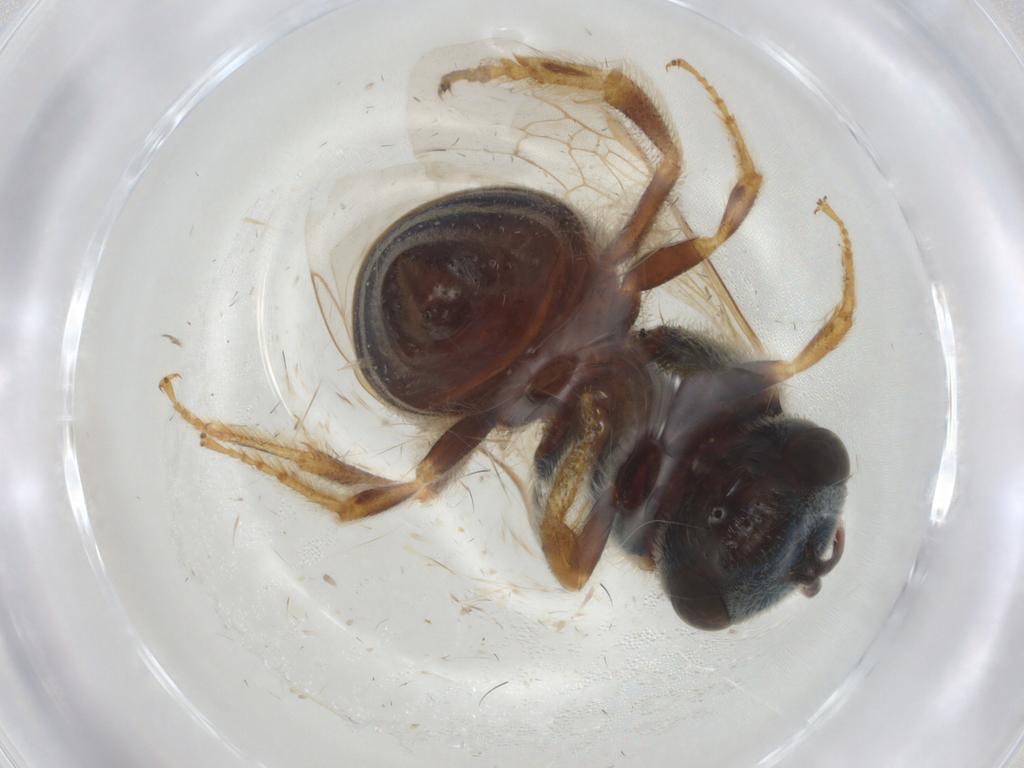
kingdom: Animalia
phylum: Arthropoda
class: Insecta
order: Hymenoptera
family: Halictidae
